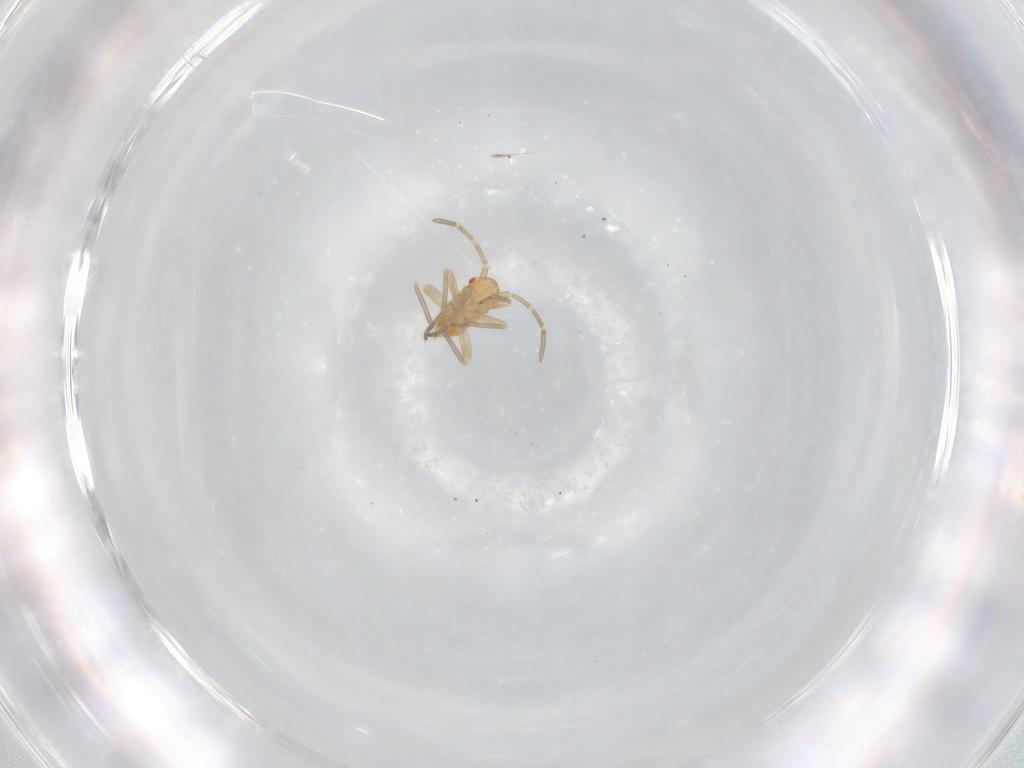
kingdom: Animalia
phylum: Arthropoda
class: Insecta
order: Hemiptera
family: Miridae
